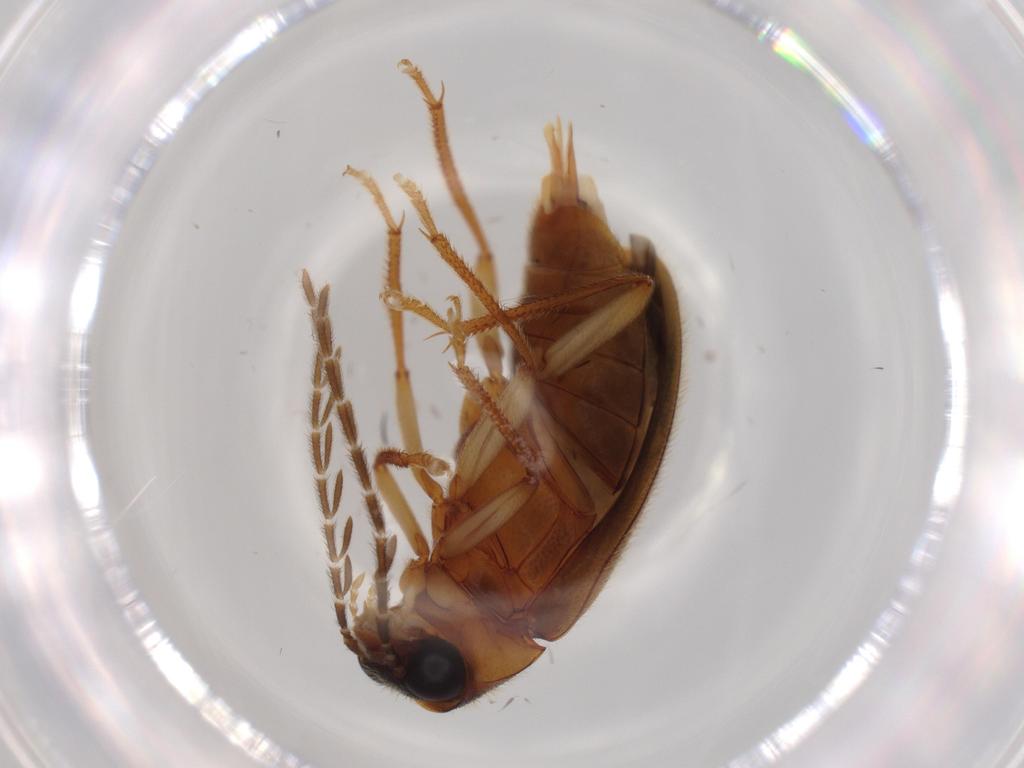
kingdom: Animalia
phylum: Arthropoda
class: Insecta
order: Coleoptera
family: Ptilodactylidae
